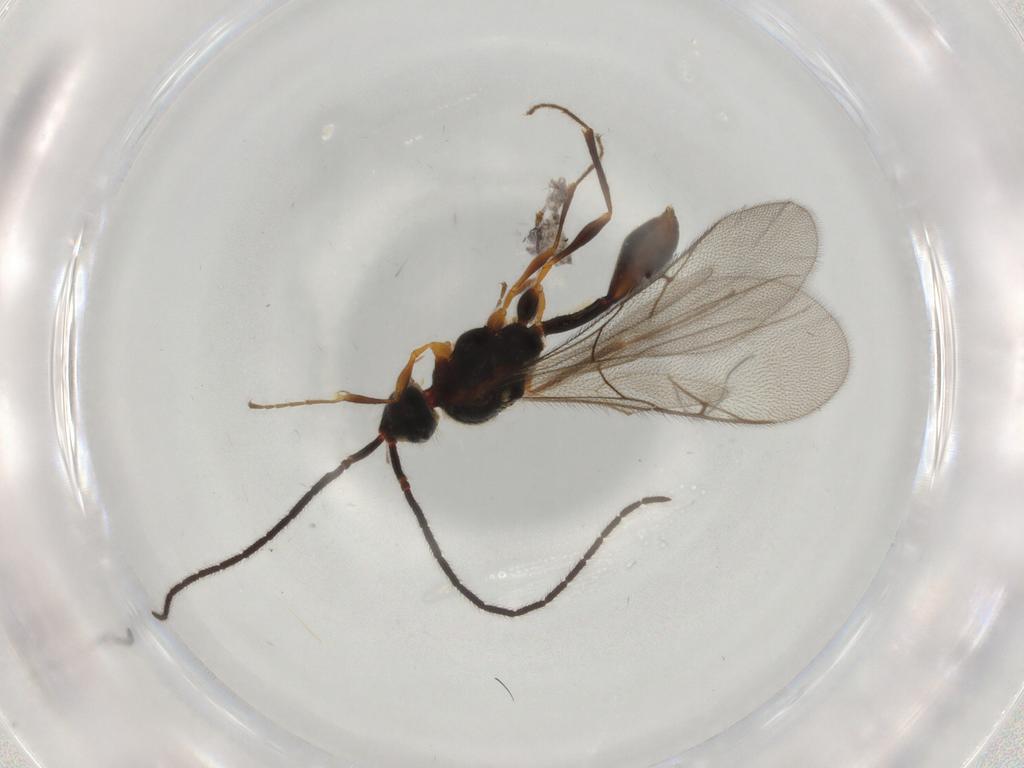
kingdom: Animalia
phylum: Arthropoda
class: Insecta
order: Hymenoptera
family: Diapriidae
